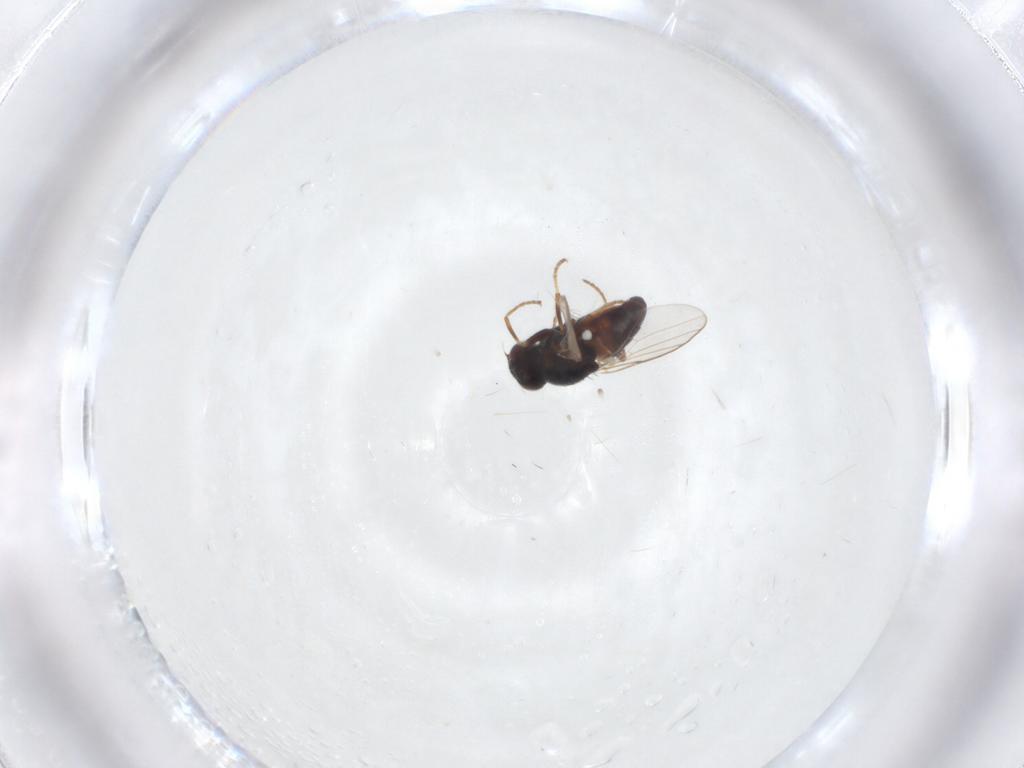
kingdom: Animalia
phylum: Arthropoda
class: Insecta
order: Diptera
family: Chloropidae
